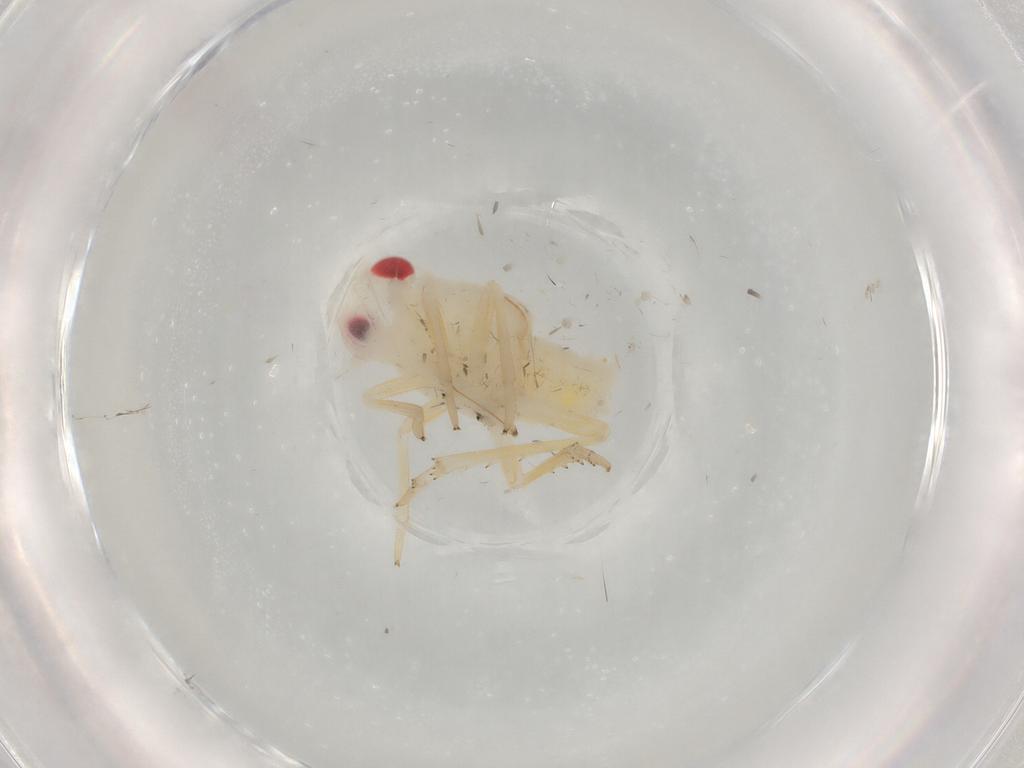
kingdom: Animalia
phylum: Arthropoda
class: Insecta
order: Hemiptera
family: Tropiduchidae
